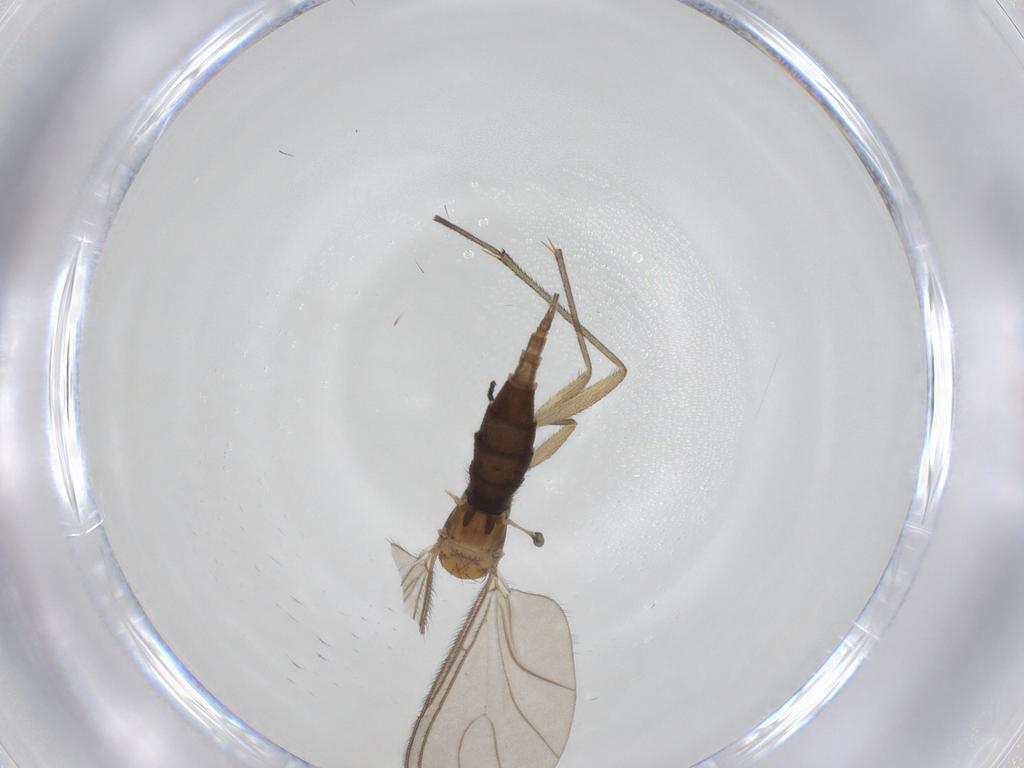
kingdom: Animalia
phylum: Arthropoda
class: Insecta
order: Diptera
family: Sciaridae
